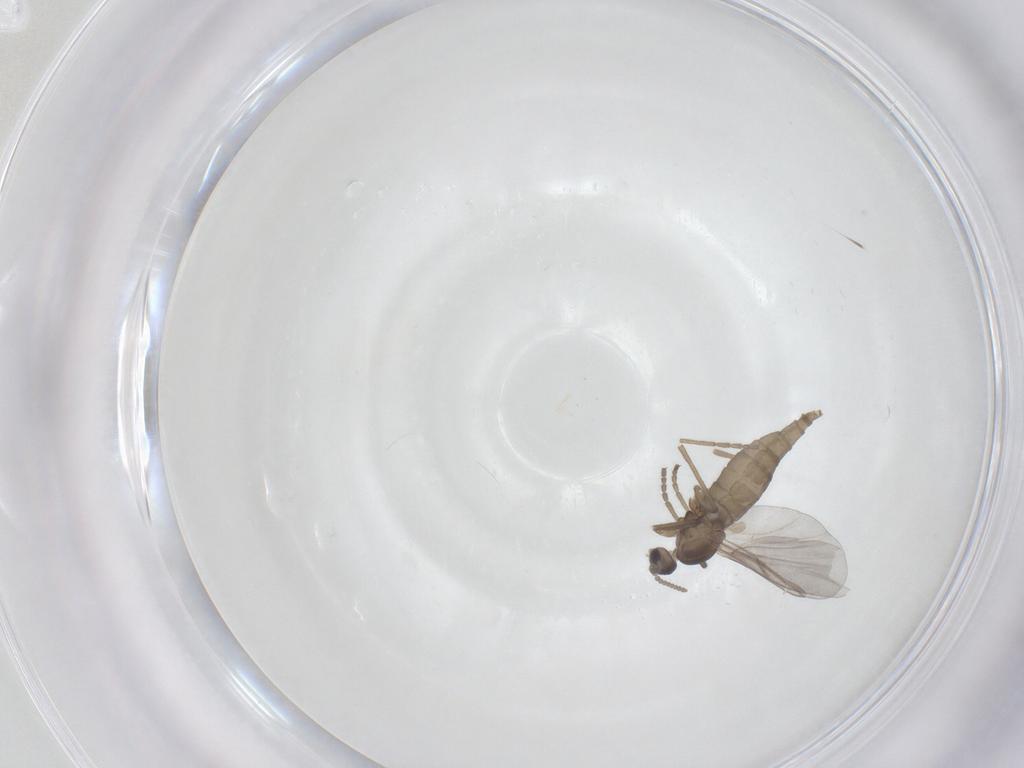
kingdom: Animalia
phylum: Arthropoda
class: Insecta
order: Diptera
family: Cecidomyiidae
